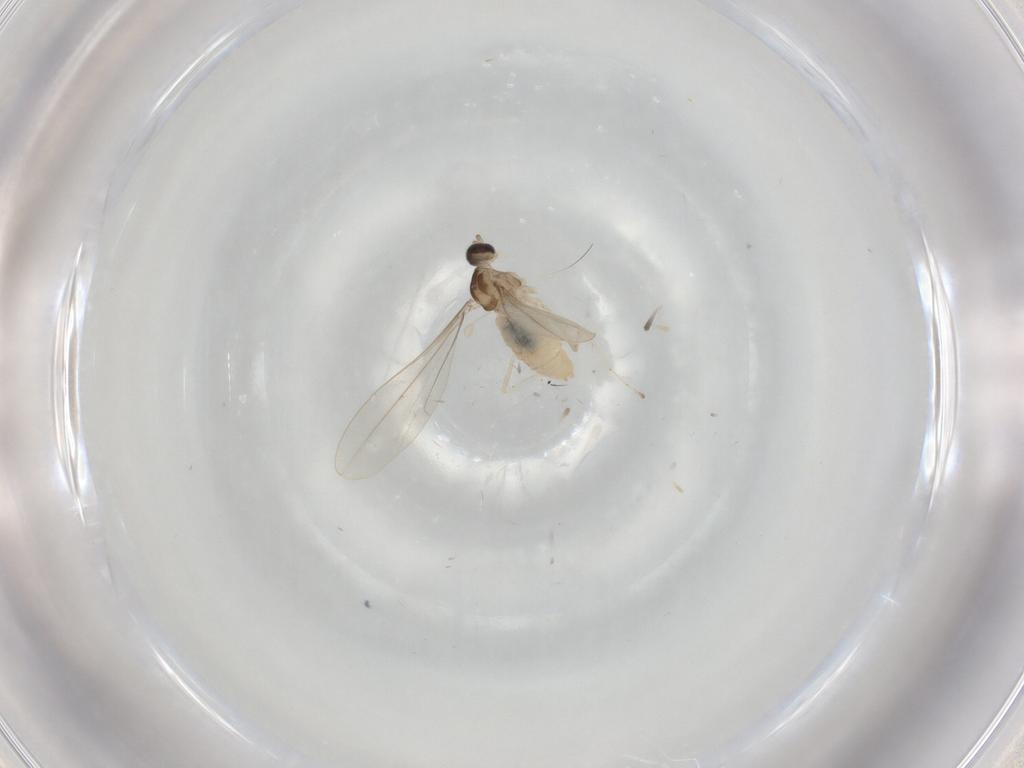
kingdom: Animalia
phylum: Arthropoda
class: Insecta
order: Diptera
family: Cecidomyiidae
